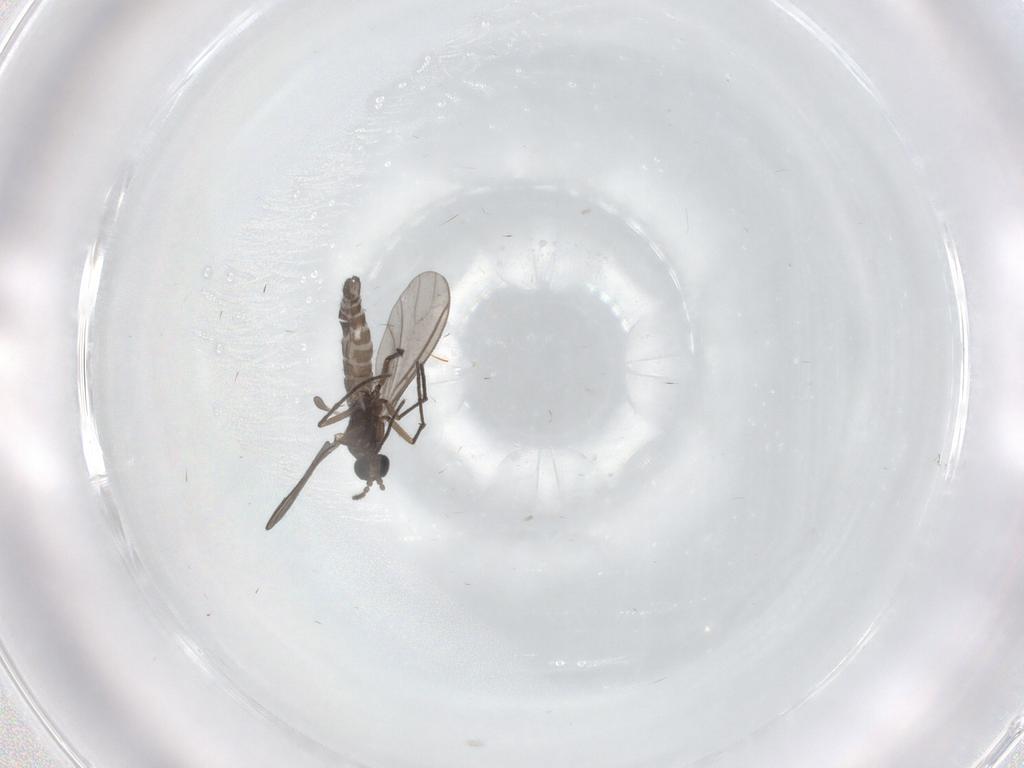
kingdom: Animalia
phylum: Arthropoda
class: Insecta
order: Diptera
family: Sciaridae
